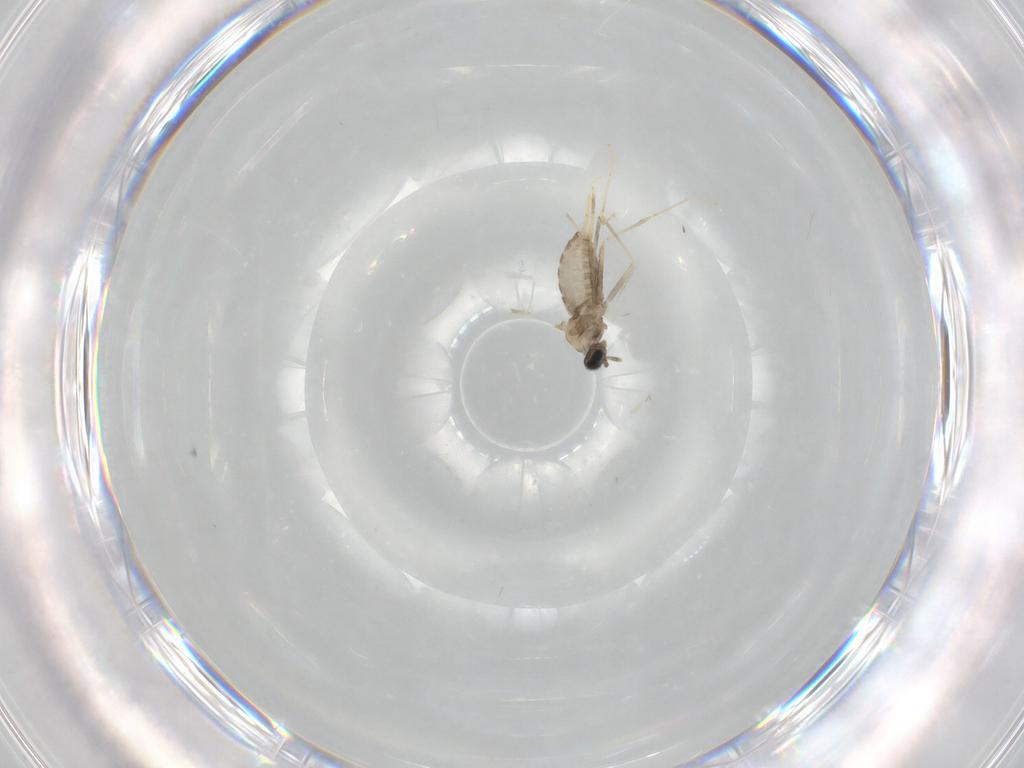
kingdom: Animalia
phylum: Arthropoda
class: Insecta
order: Diptera
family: Cecidomyiidae
